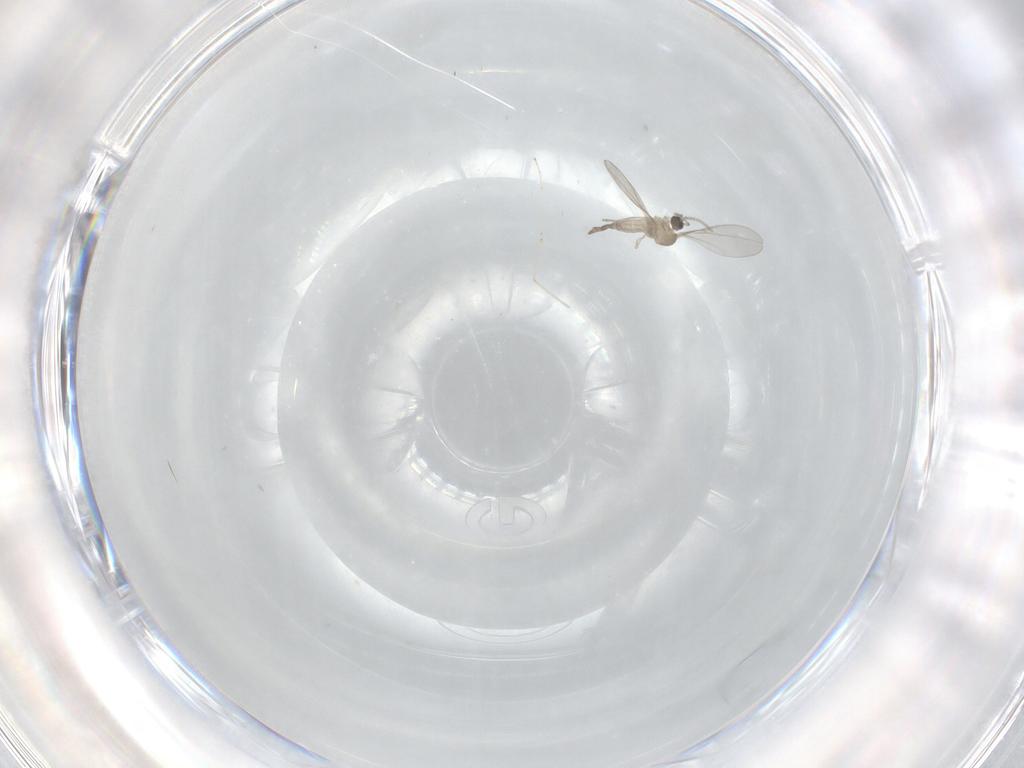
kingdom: Animalia
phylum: Arthropoda
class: Insecta
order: Diptera
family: Cecidomyiidae
